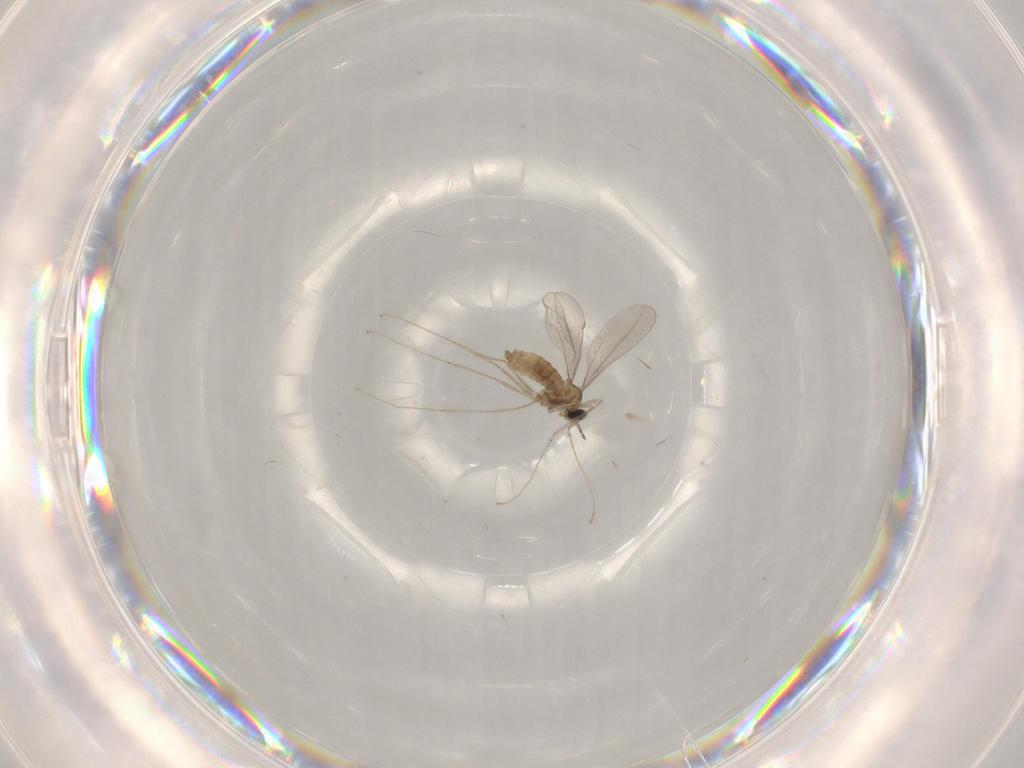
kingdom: Animalia
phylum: Arthropoda
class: Insecta
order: Diptera
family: Cecidomyiidae
